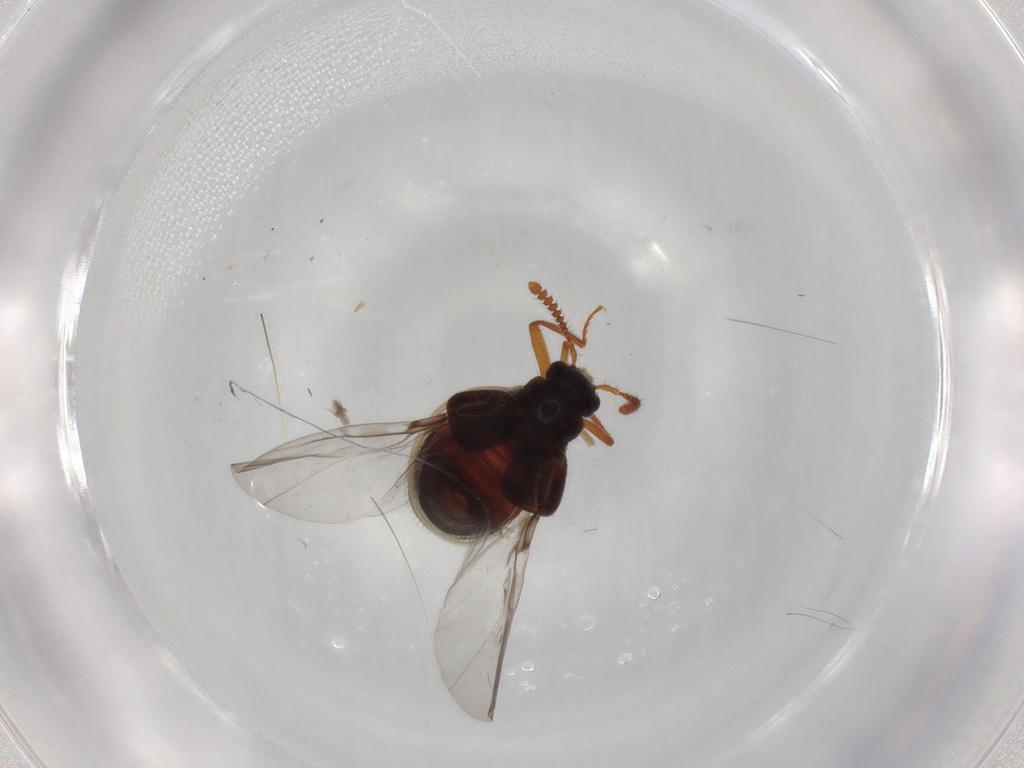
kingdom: Animalia
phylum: Arthropoda
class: Insecta
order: Coleoptera
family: Staphylinidae
